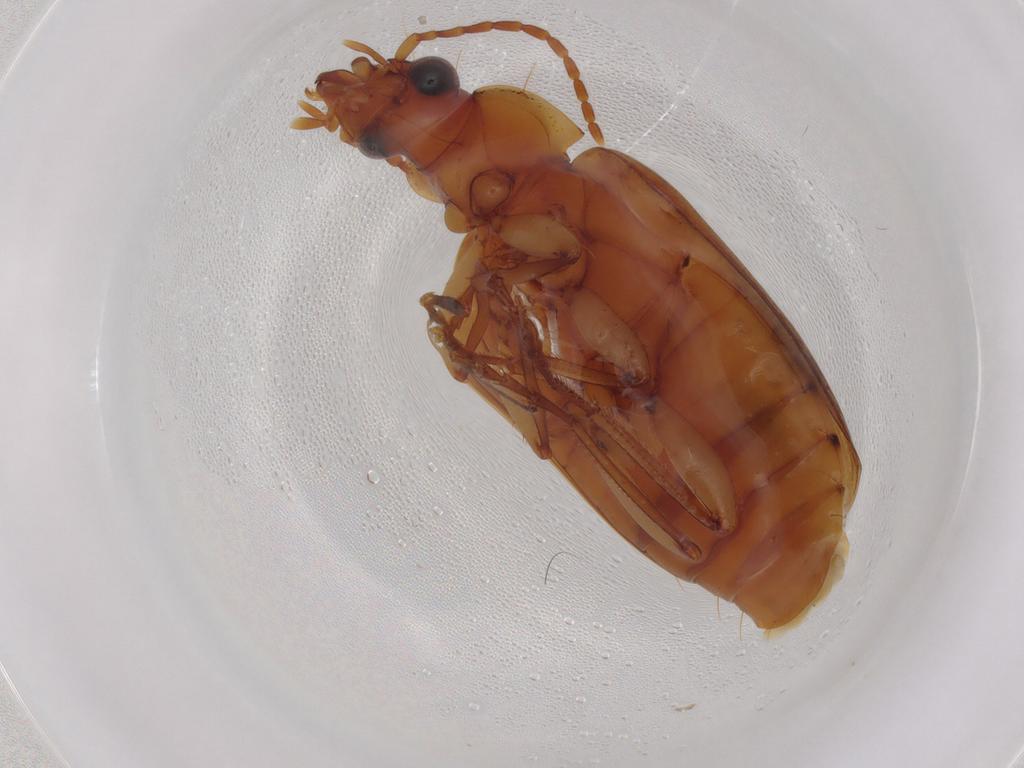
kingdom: Animalia
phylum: Arthropoda
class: Insecta
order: Coleoptera
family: Carabidae
